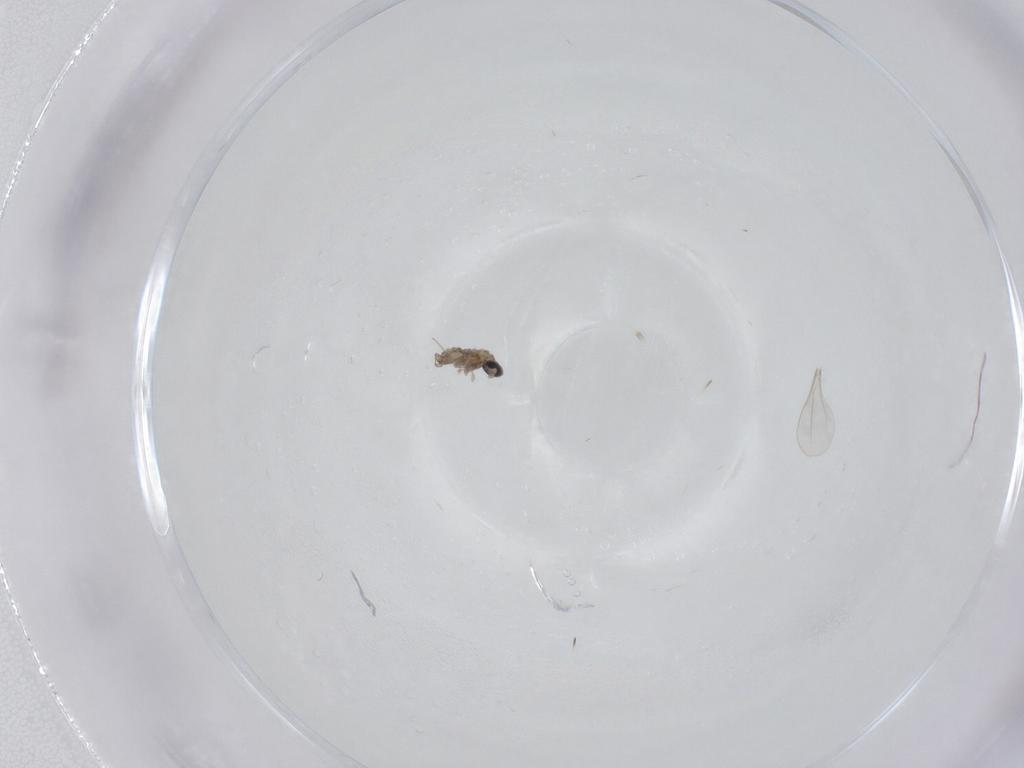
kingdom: Animalia
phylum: Arthropoda
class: Insecta
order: Diptera
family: Cecidomyiidae
